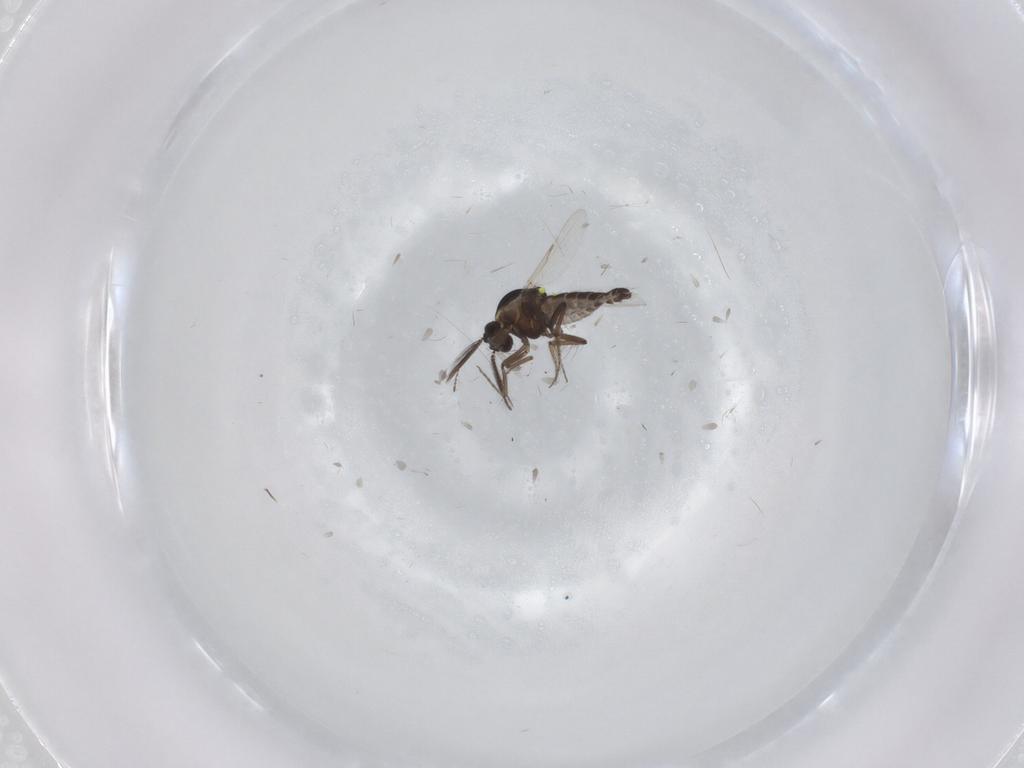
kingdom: Animalia
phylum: Arthropoda
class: Insecta
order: Diptera
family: Ceratopogonidae
